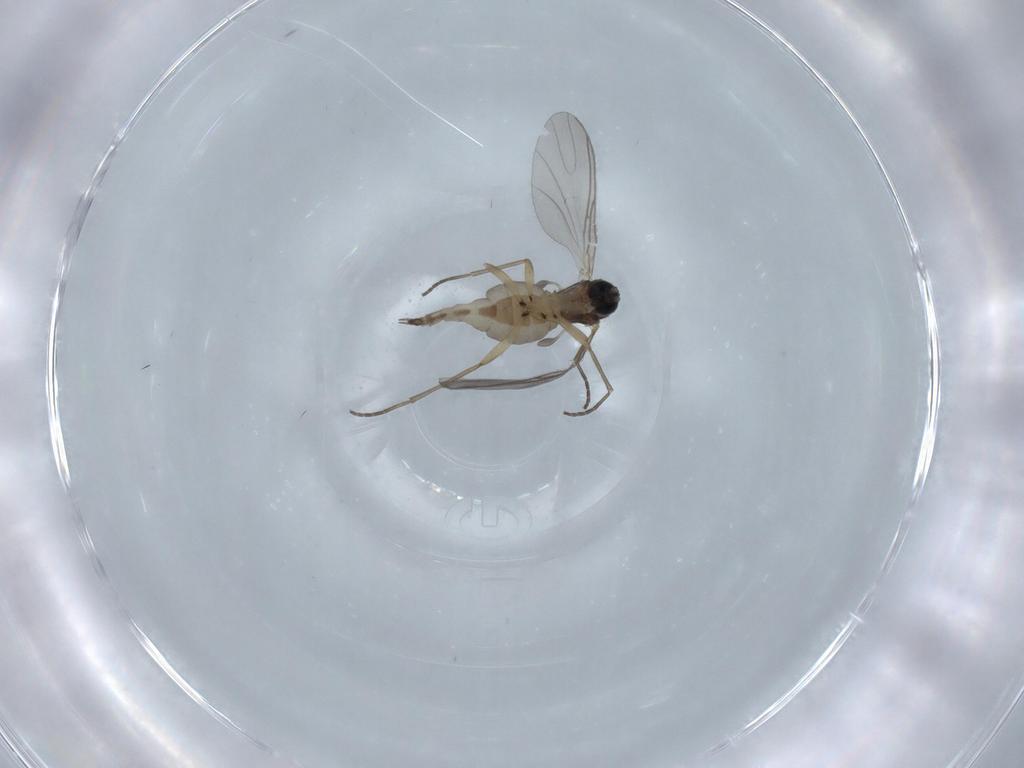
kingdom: Animalia
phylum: Arthropoda
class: Insecta
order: Diptera
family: Sciaridae
